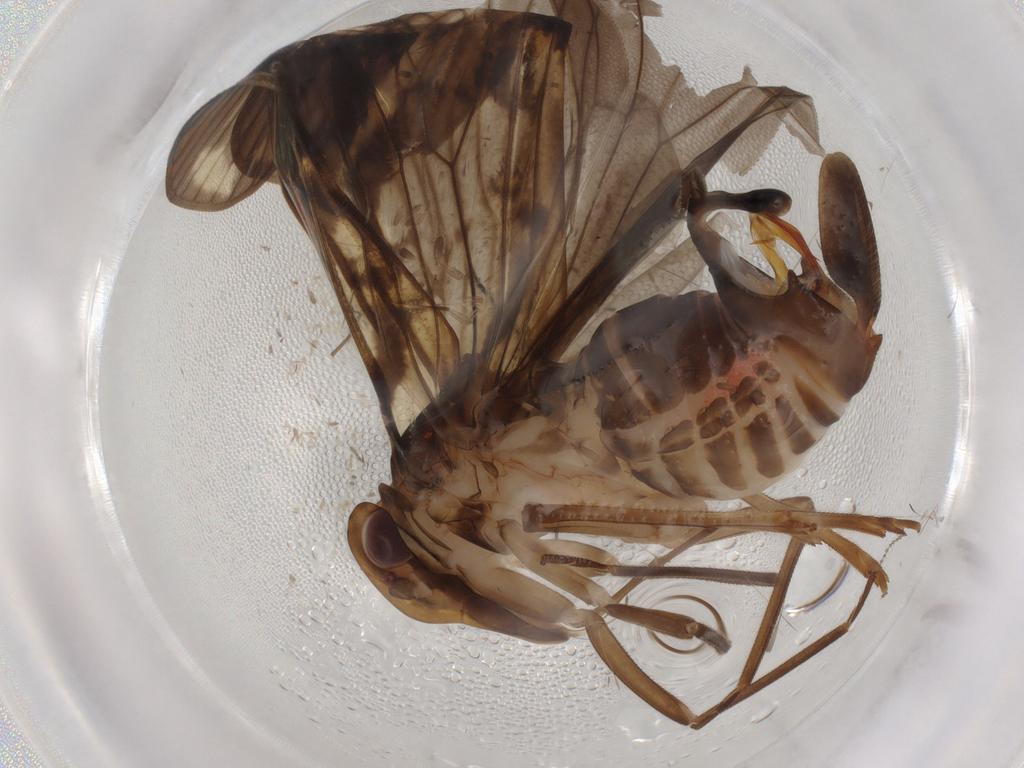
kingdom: Animalia
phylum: Arthropoda
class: Insecta
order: Hemiptera
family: Cixiidae
